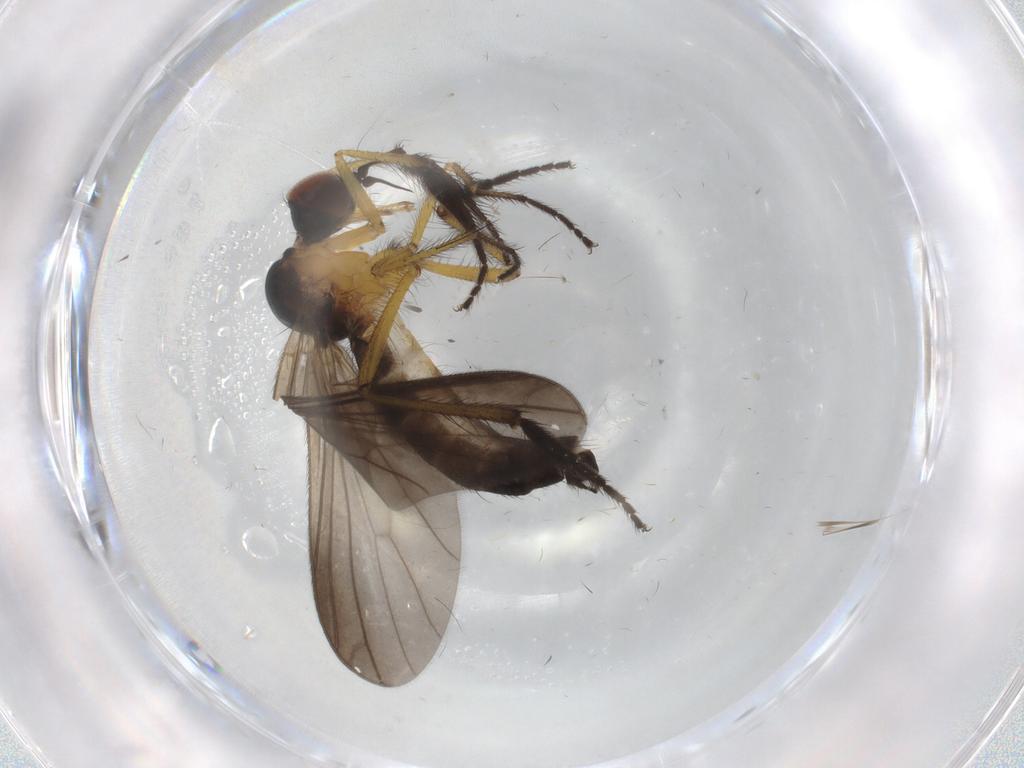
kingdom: Animalia
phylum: Arthropoda
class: Insecta
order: Diptera
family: Empididae
